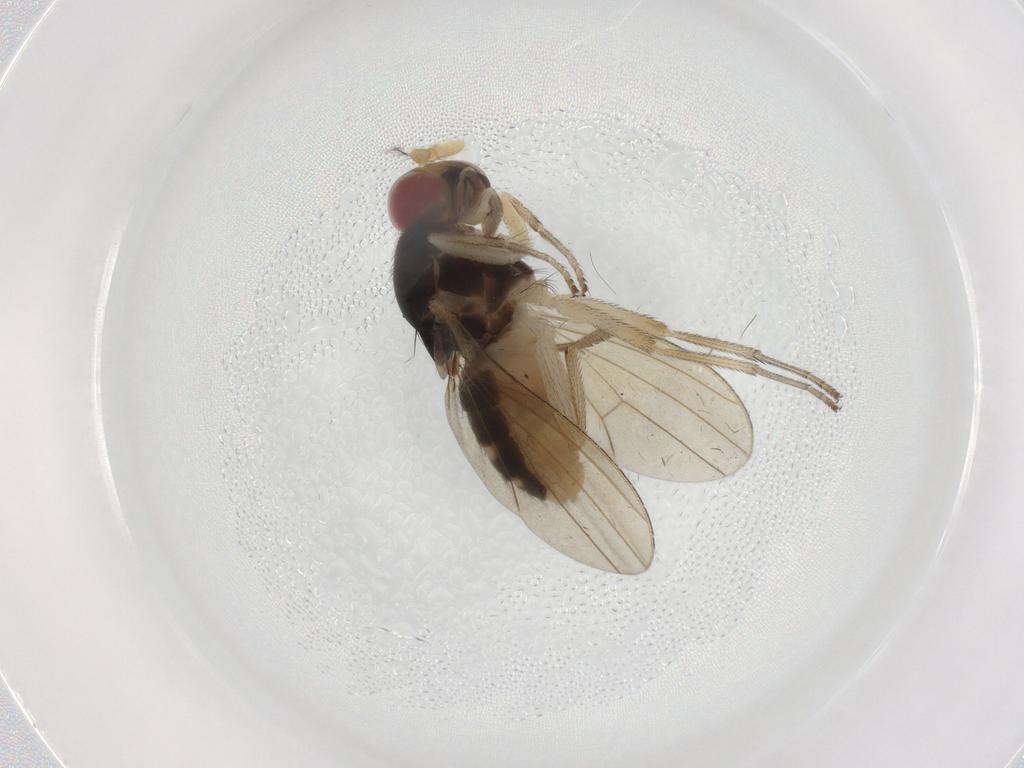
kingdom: Animalia
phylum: Arthropoda
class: Insecta
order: Diptera
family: Lauxaniidae
